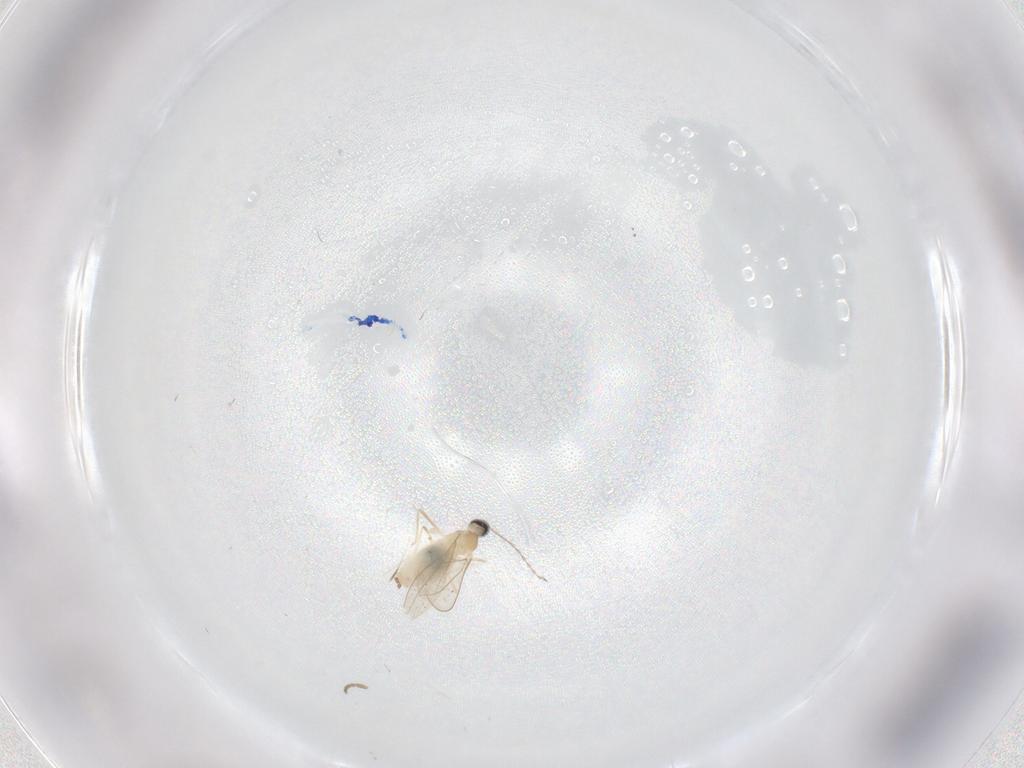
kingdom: Animalia
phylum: Arthropoda
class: Insecta
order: Diptera
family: Cecidomyiidae
